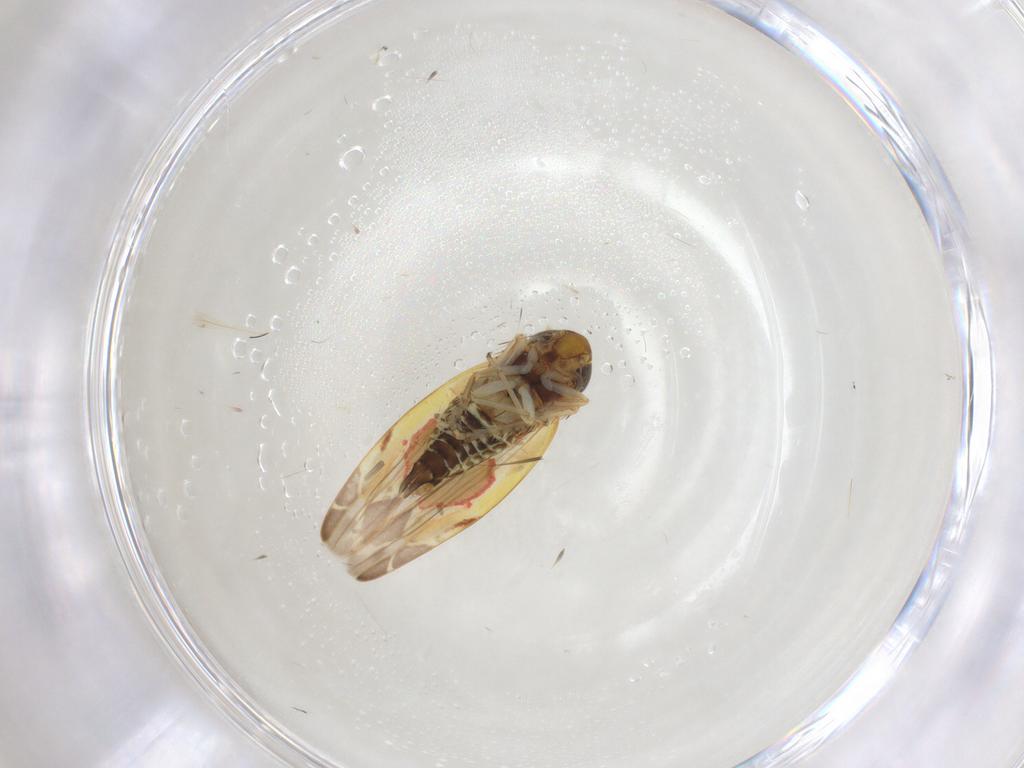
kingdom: Animalia
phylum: Arthropoda
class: Insecta
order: Hemiptera
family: Cicadellidae
